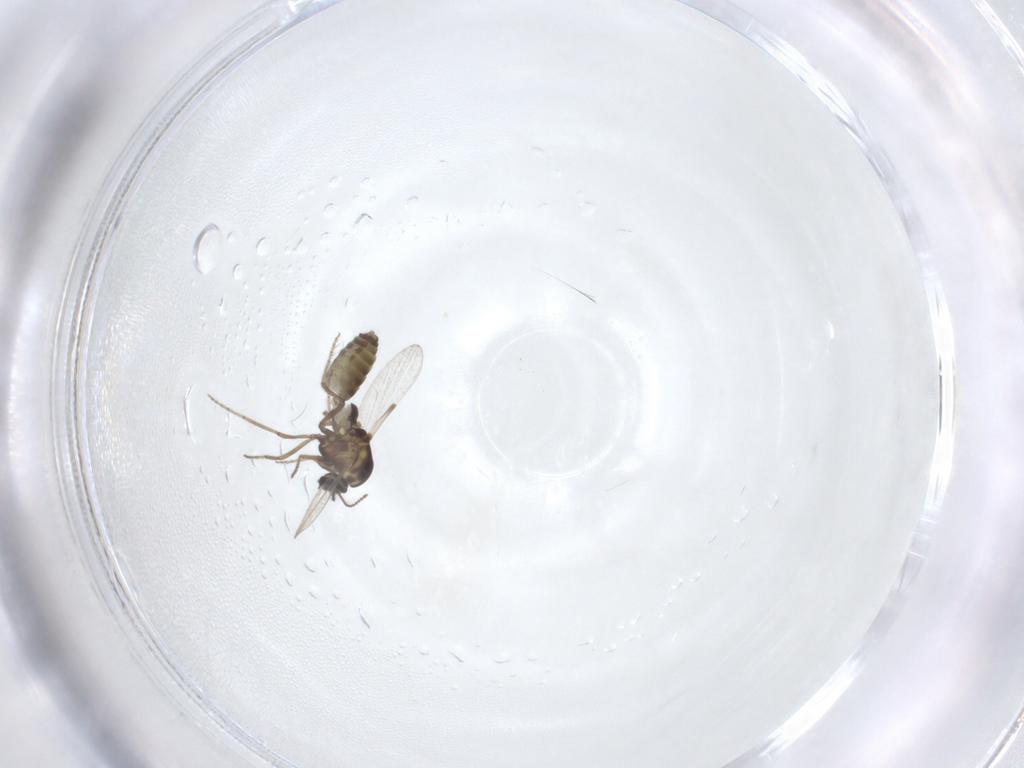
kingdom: Animalia
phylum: Arthropoda
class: Insecta
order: Diptera
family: Ceratopogonidae
